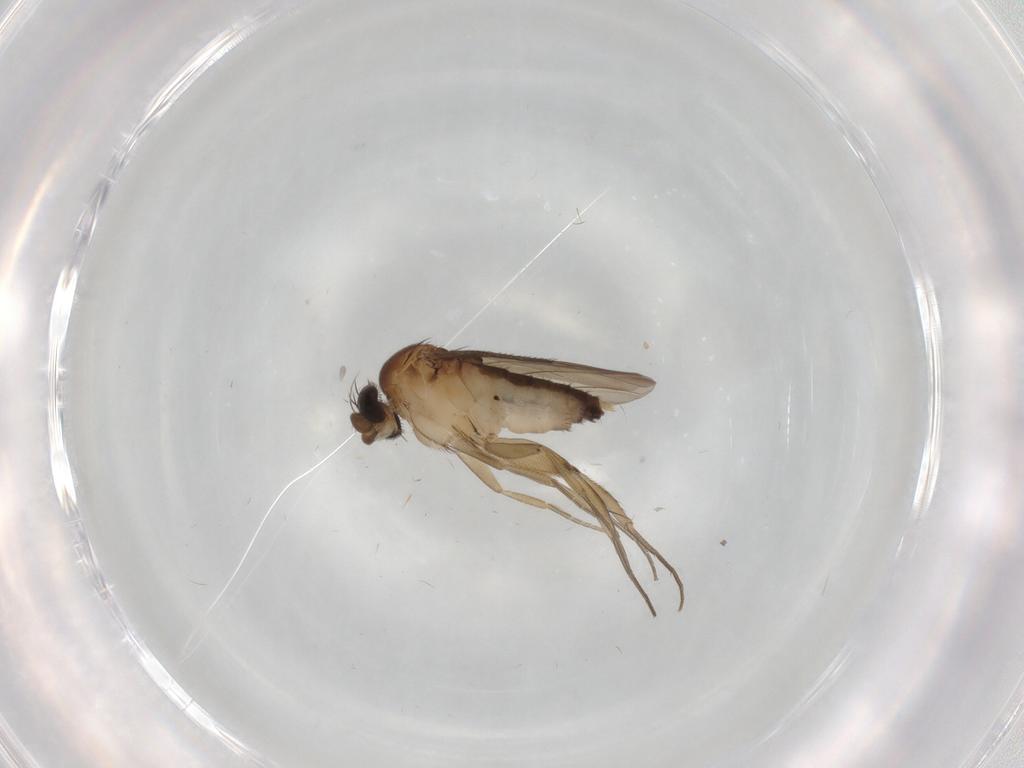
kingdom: Animalia
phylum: Arthropoda
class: Insecta
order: Diptera
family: Phoridae
